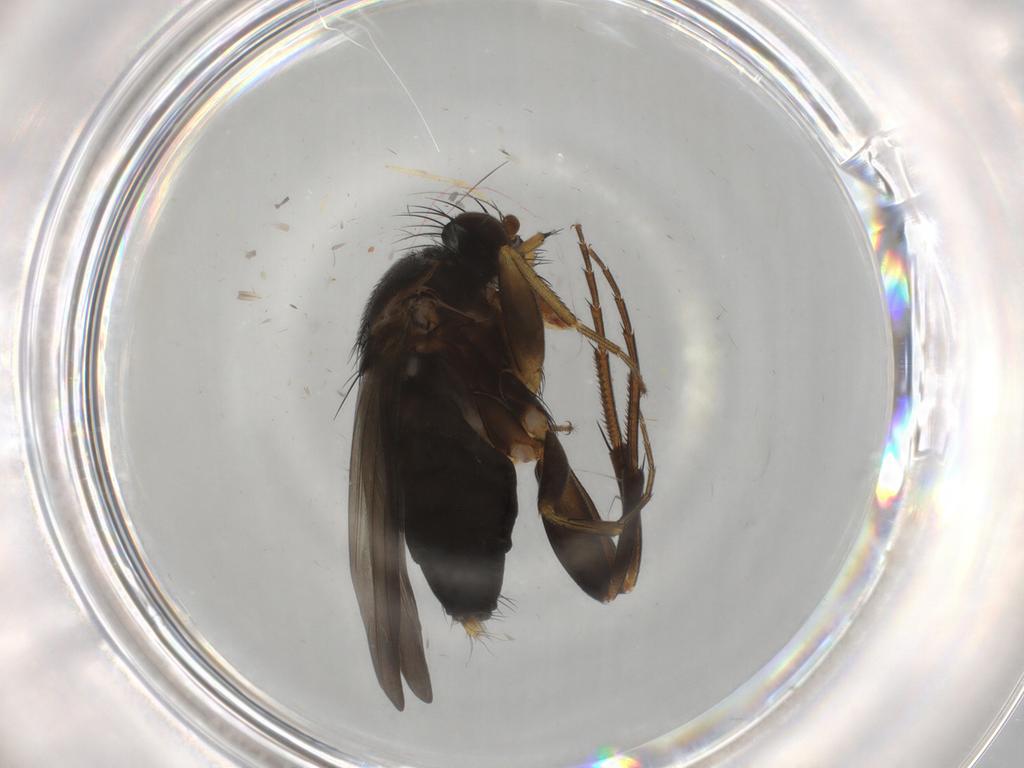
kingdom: Animalia
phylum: Arthropoda
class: Insecta
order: Diptera
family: Phoridae
